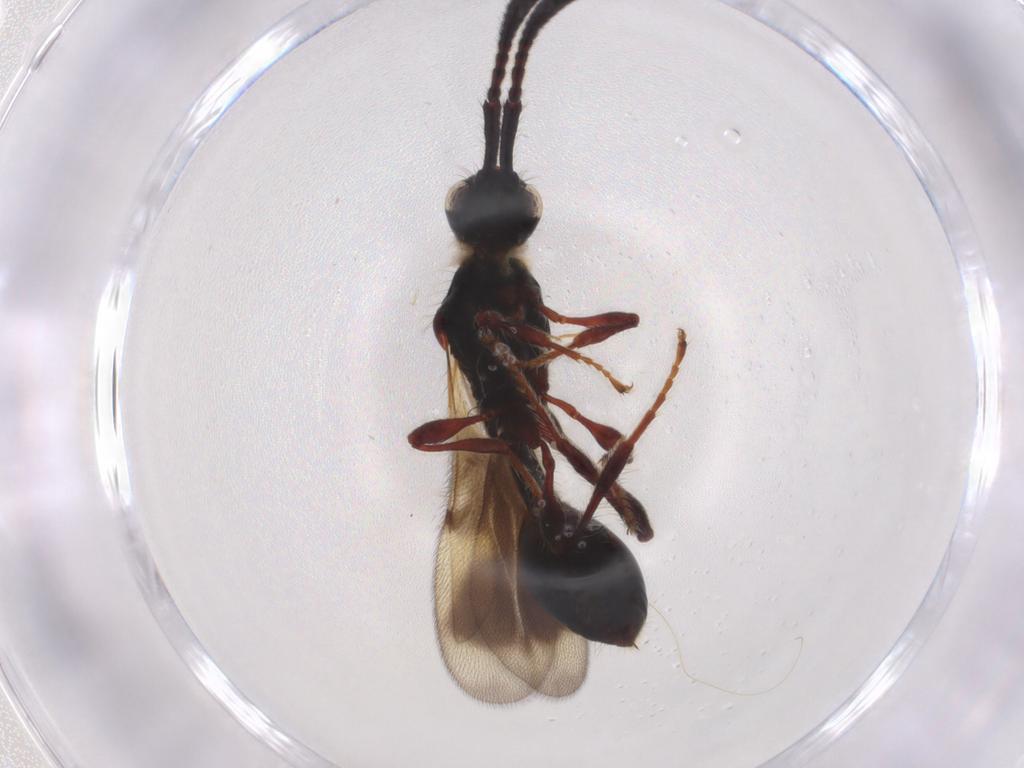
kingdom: Animalia
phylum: Arthropoda
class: Insecta
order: Hymenoptera
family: Diapriidae
